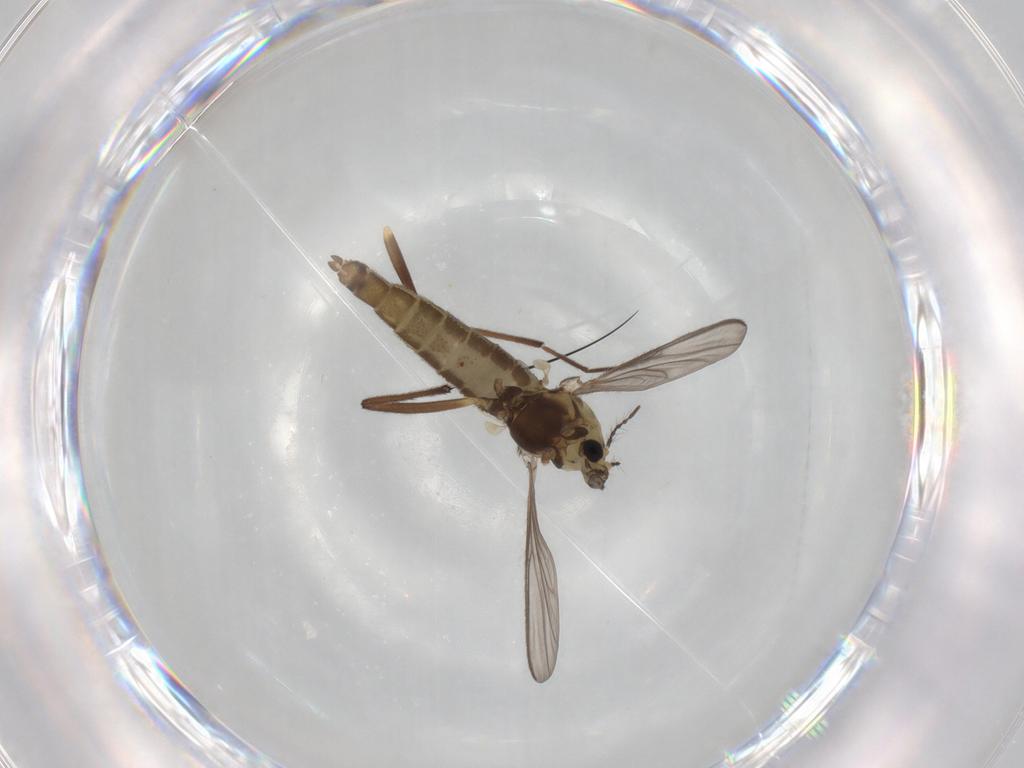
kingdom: Animalia
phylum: Arthropoda
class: Insecta
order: Diptera
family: Chironomidae
